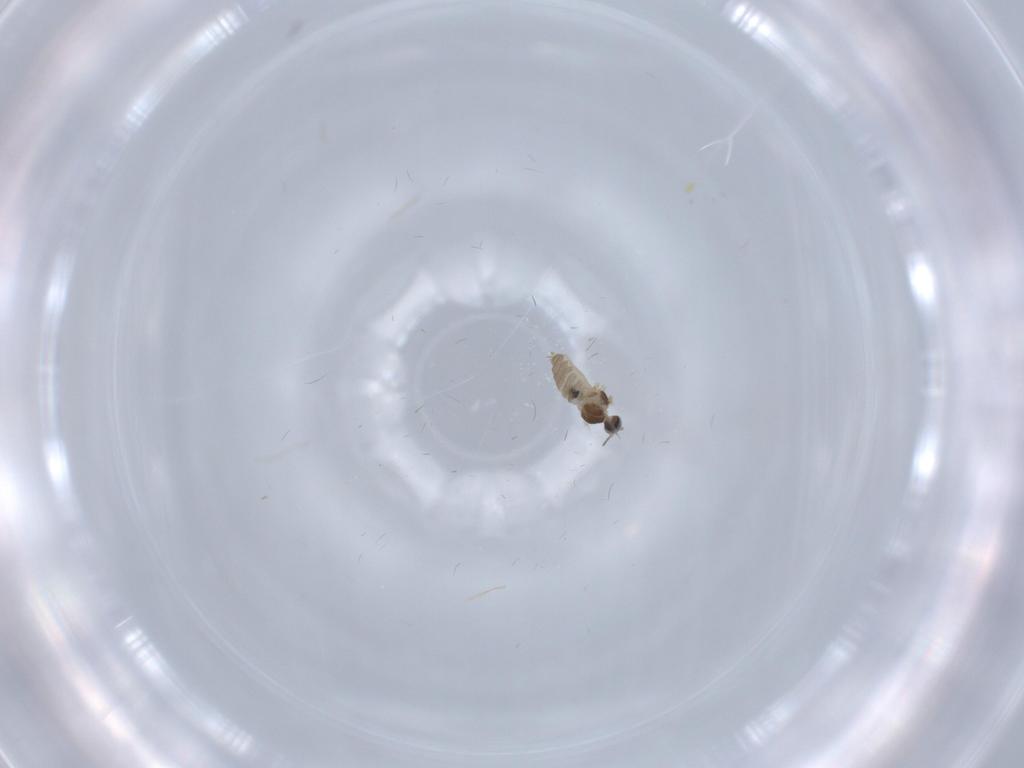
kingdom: Animalia
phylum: Arthropoda
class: Insecta
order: Diptera
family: Cecidomyiidae
